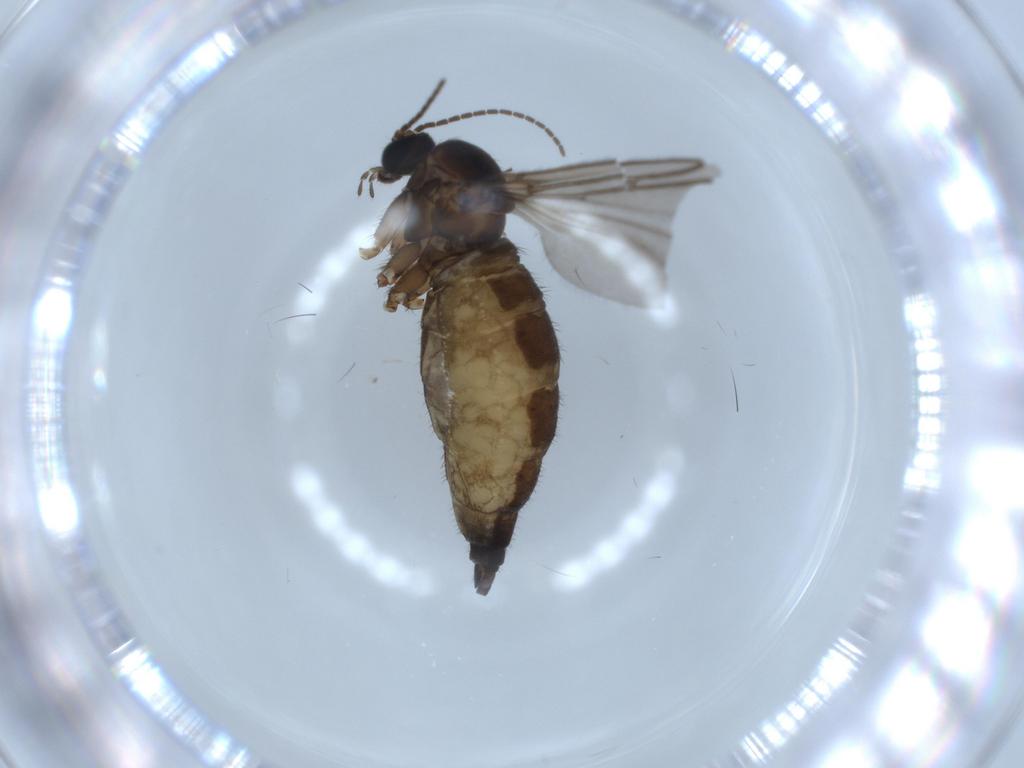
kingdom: Animalia
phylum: Arthropoda
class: Insecta
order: Diptera
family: Sciaridae
